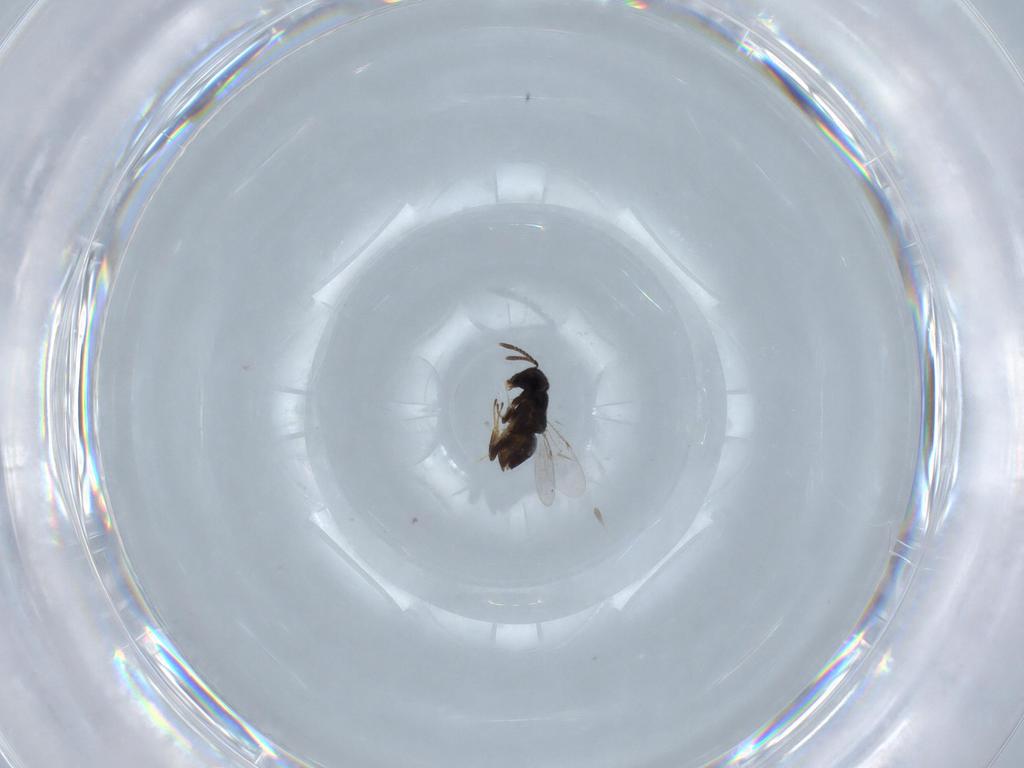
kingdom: Animalia
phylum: Arthropoda
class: Insecta
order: Hymenoptera
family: Encyrtidae
